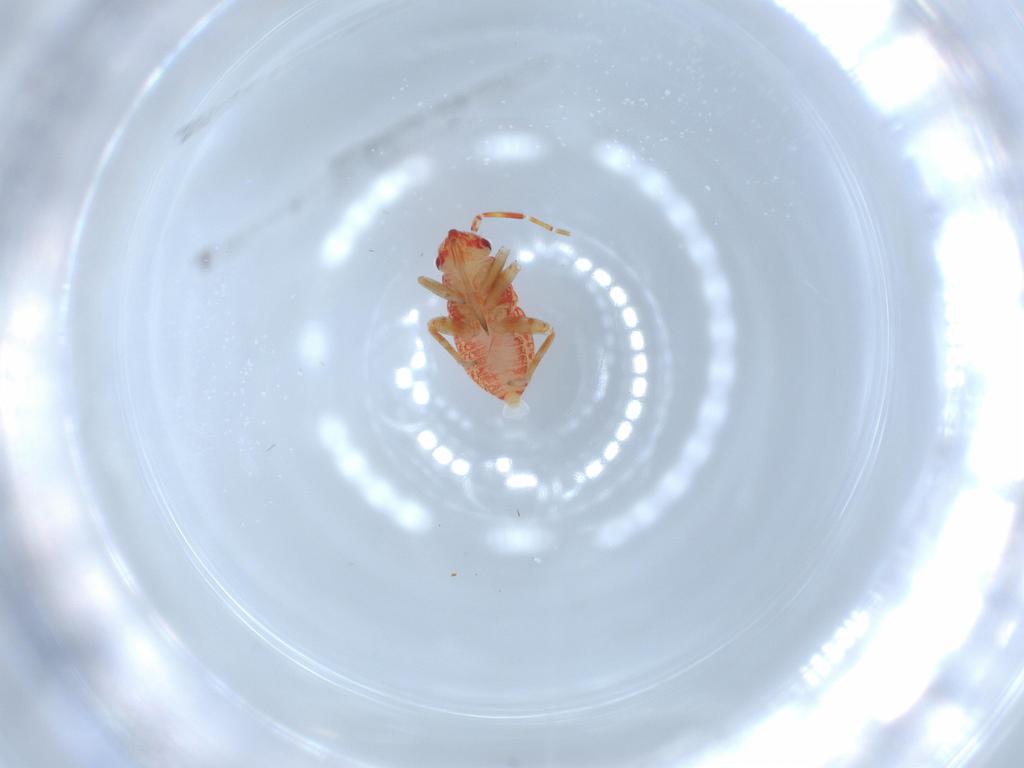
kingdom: Animalia
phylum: Arthropoda
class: Insecta
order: Hemiptera
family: Miridae
